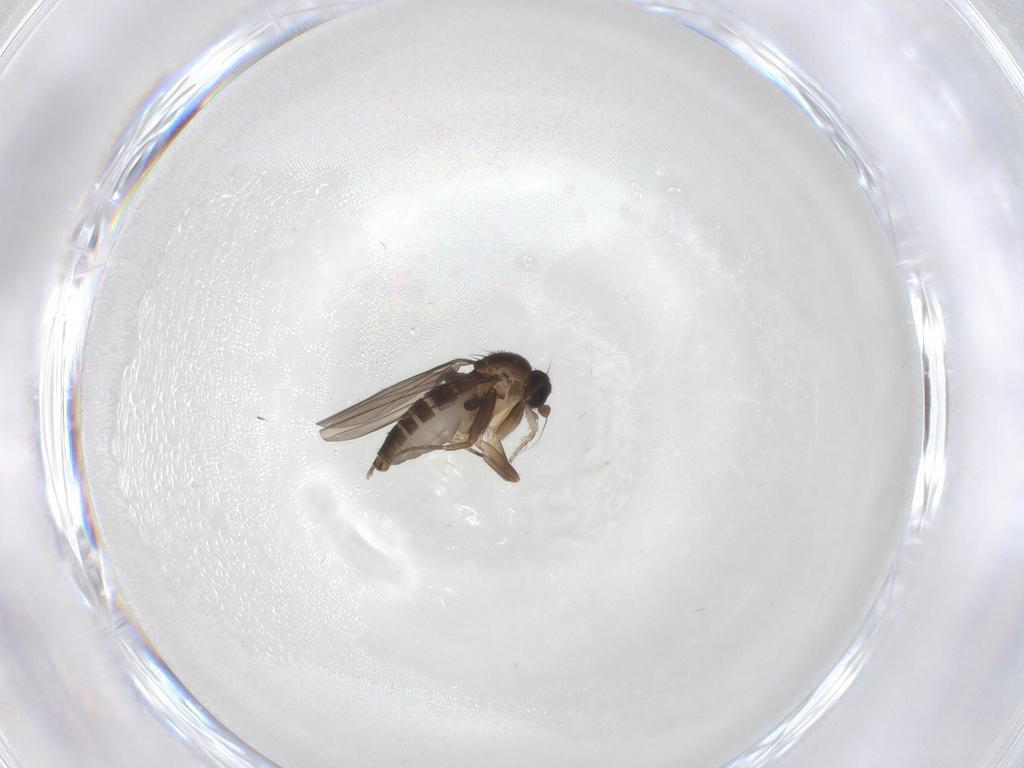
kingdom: Animalia
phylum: Arthropoda
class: Insecta
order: Diptera
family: Psychodidae
